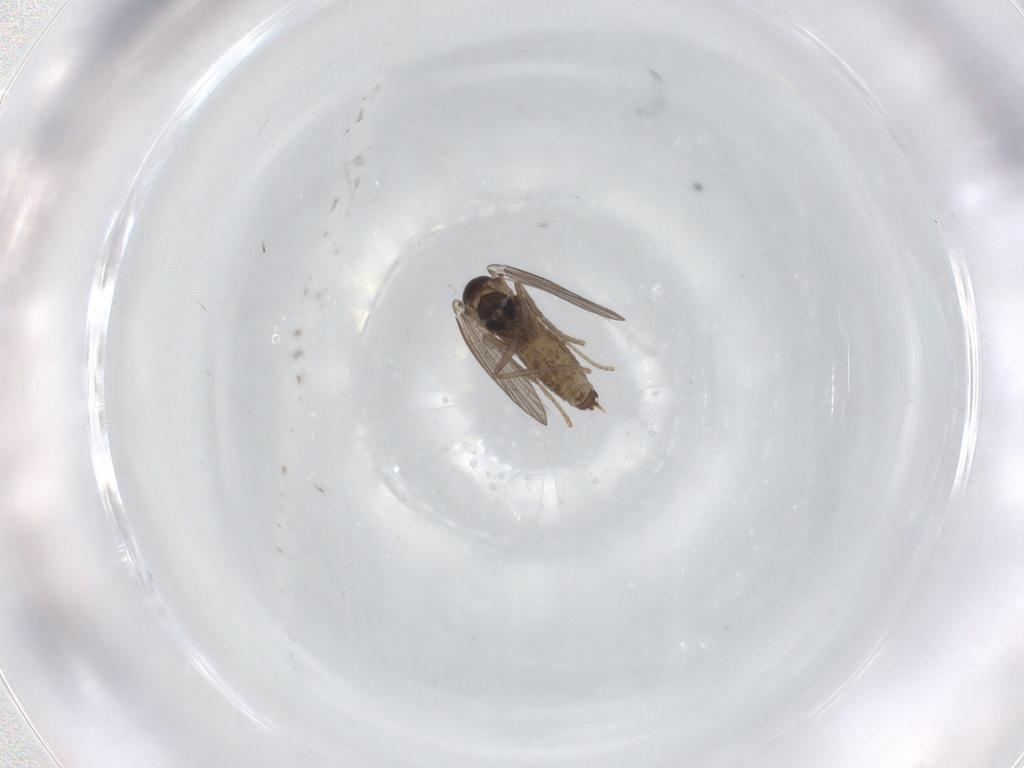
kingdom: Animalia
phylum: Arthropoda
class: Insecta
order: Diptera
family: Psychodidae
